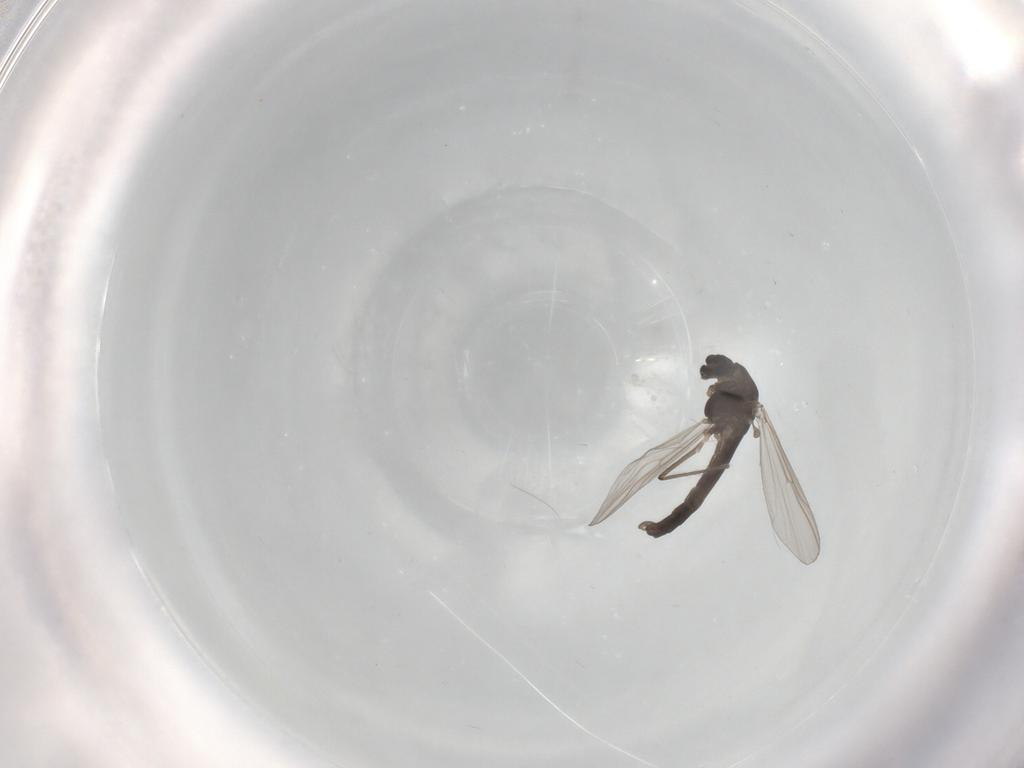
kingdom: Animalia
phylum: Arthropoda
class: Insecta
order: Diptera
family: Chironomidae
